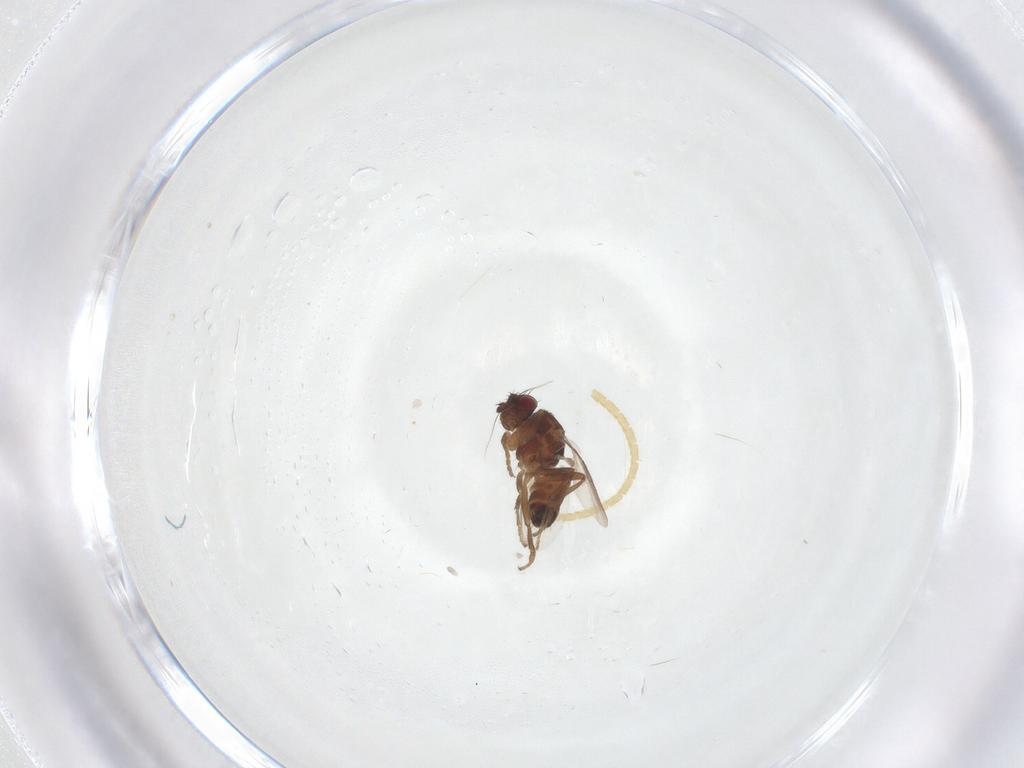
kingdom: Animalia
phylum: Arthropoda
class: Insecta
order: Diptera
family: Sphaeroceridae
